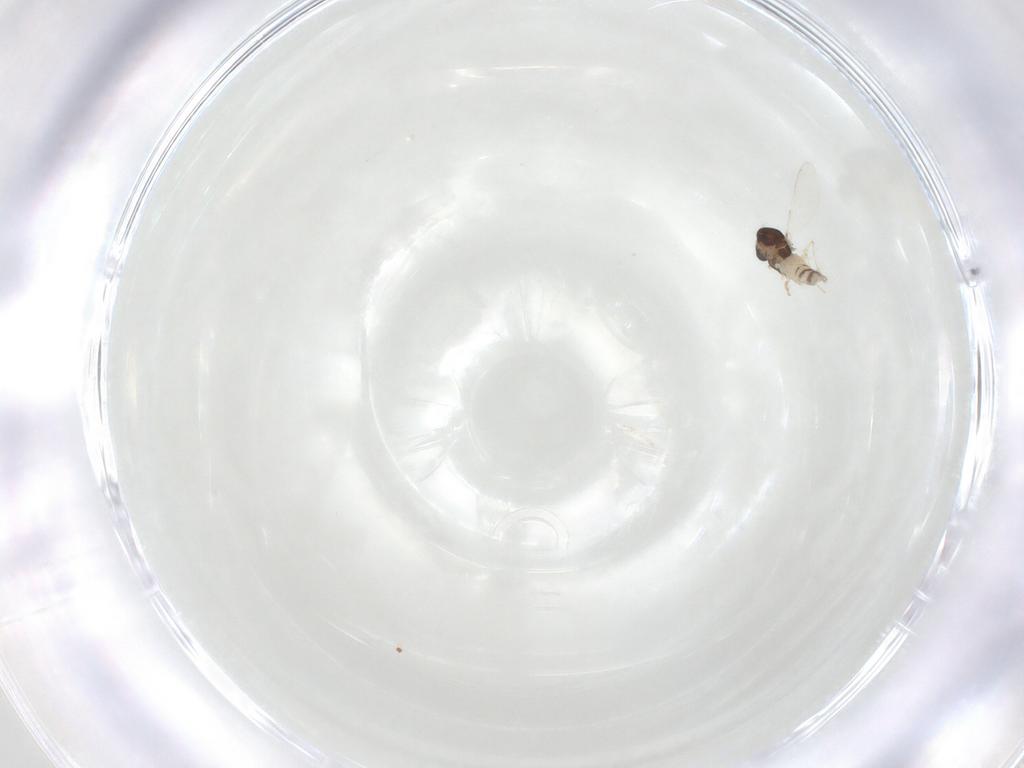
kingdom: Animalia
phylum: Arthropoda
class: Insecta
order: Diptera
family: Chironomidae
